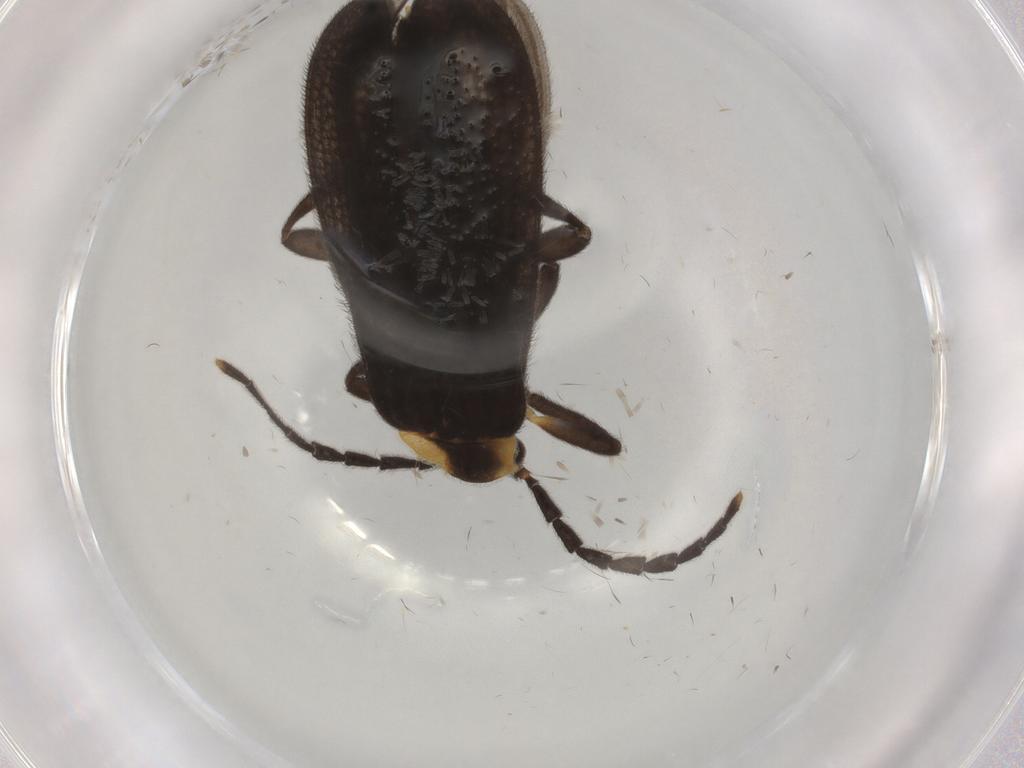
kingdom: Animalia
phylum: Arthropoda
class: Insecta
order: Coleoptera
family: Lycidae
